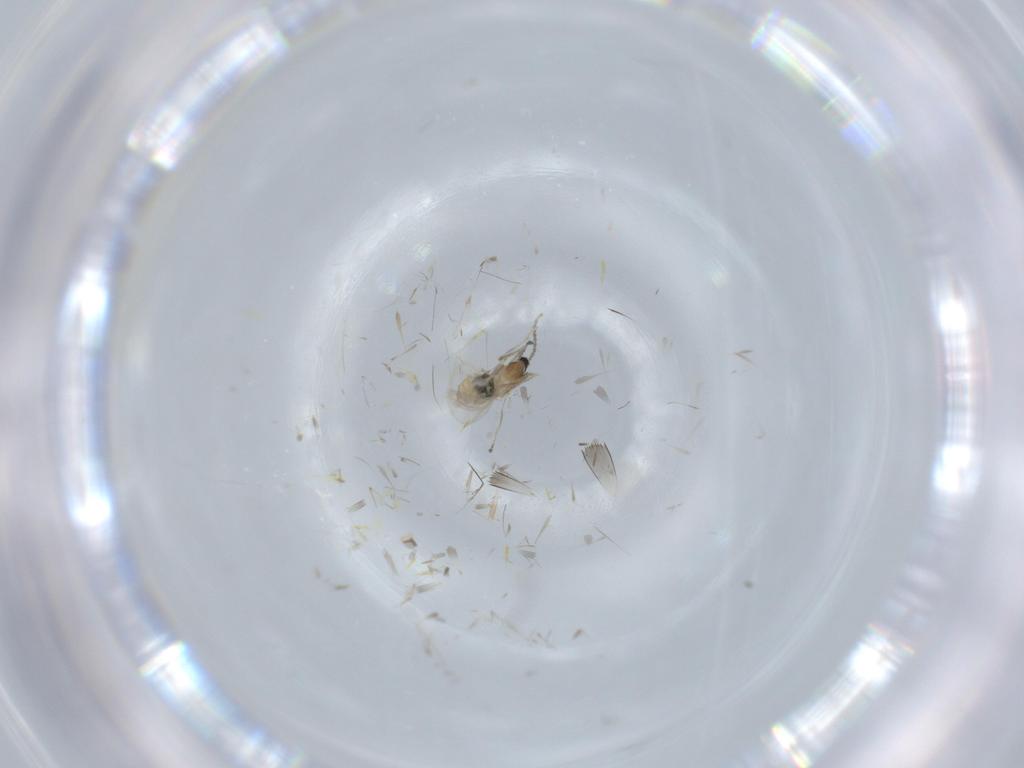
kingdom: Animalia
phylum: Arthropoda
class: Insecta
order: Diptera
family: Cecidomyiidae
